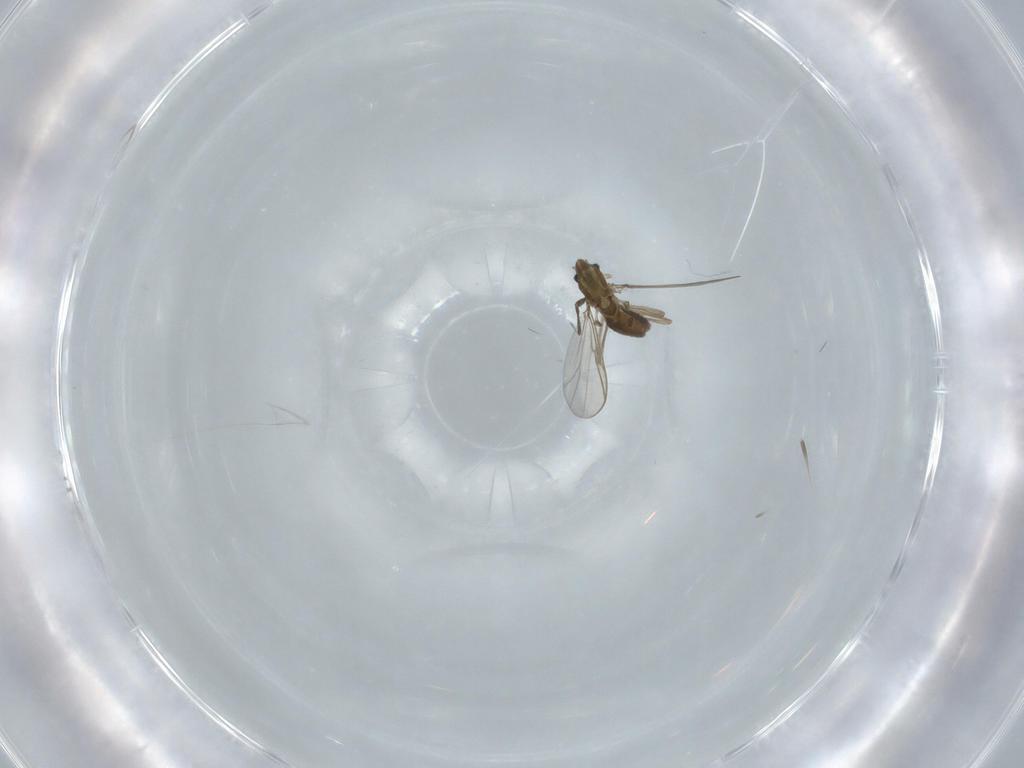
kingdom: Animalia
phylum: Arthropoda
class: Insecta
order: Diptera
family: Chironomidae
